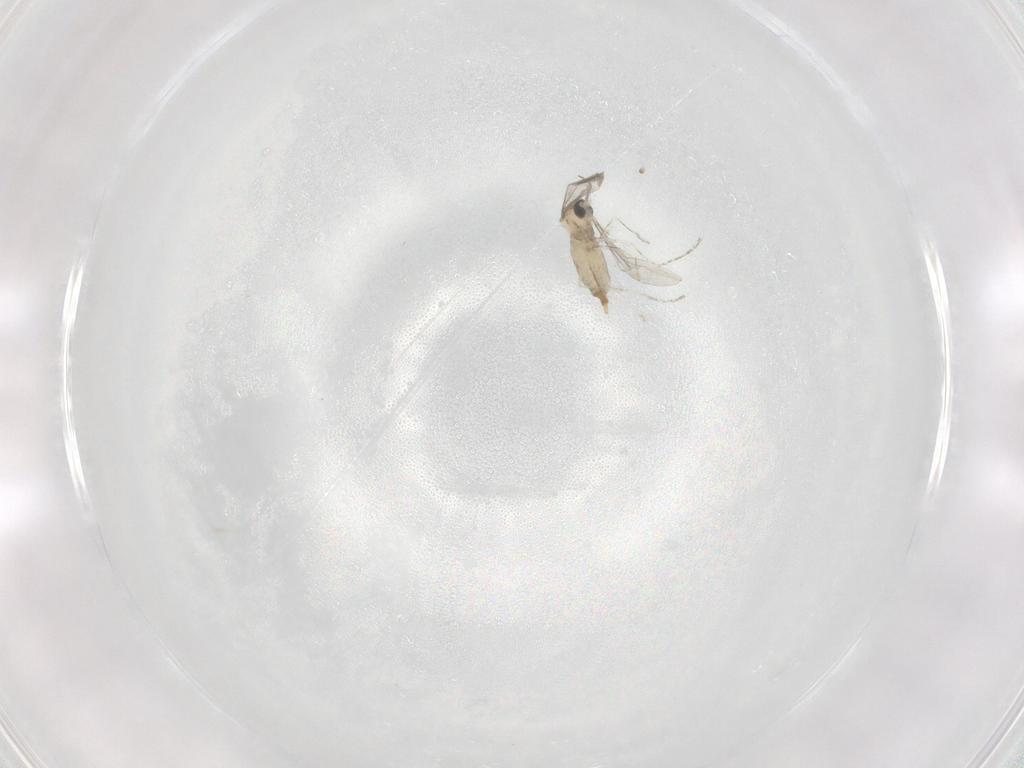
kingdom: Animalia
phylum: Arthropoda
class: Insecta
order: Diptera
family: Cecidomyiidae
